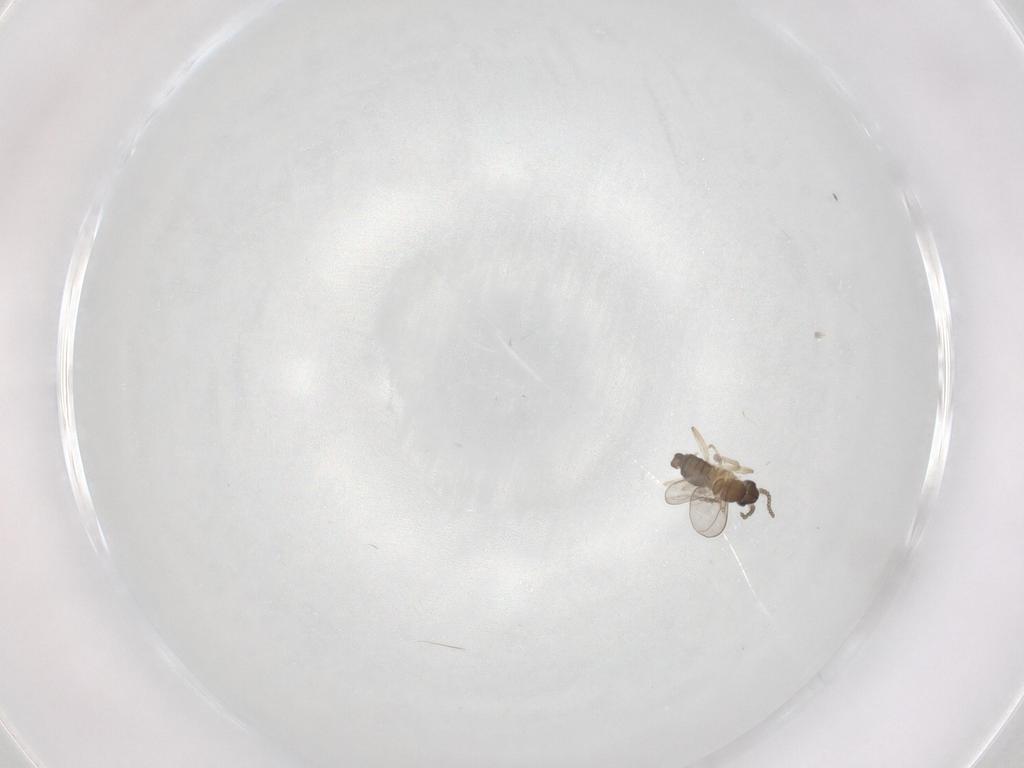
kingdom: Animalia
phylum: Arthropoda
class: Insecta
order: Diptera
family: Cecidomyiidae
